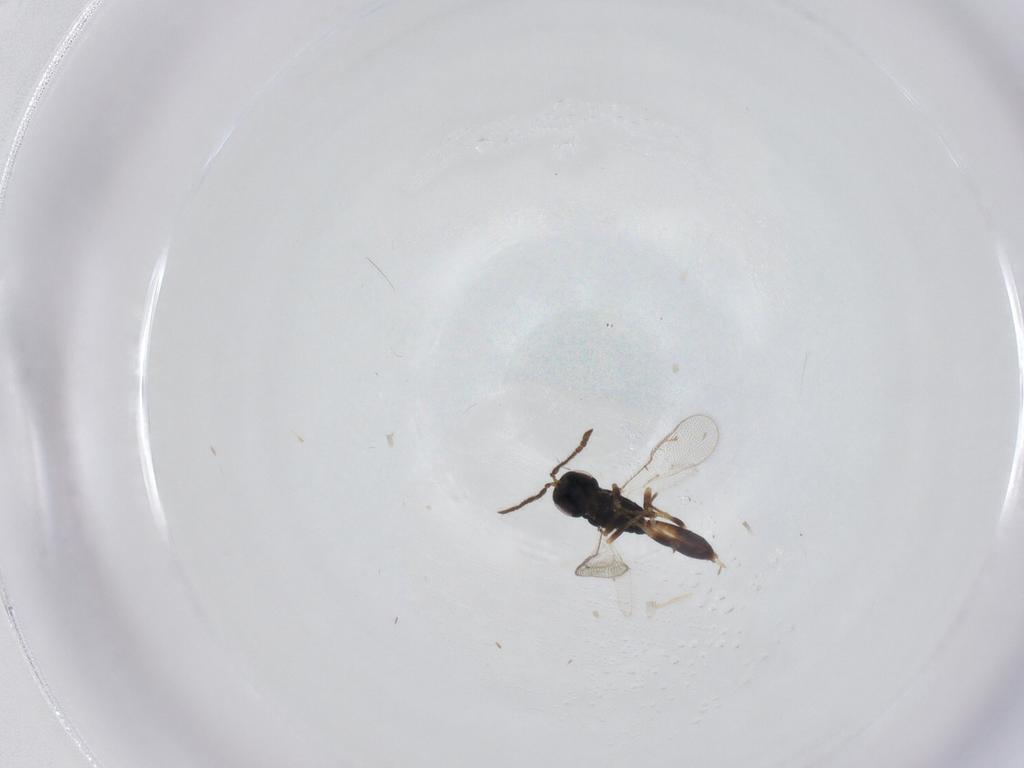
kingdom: Animalia
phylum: Arthropoda
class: Insecta
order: Hymenoptera
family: Pteromalidae
